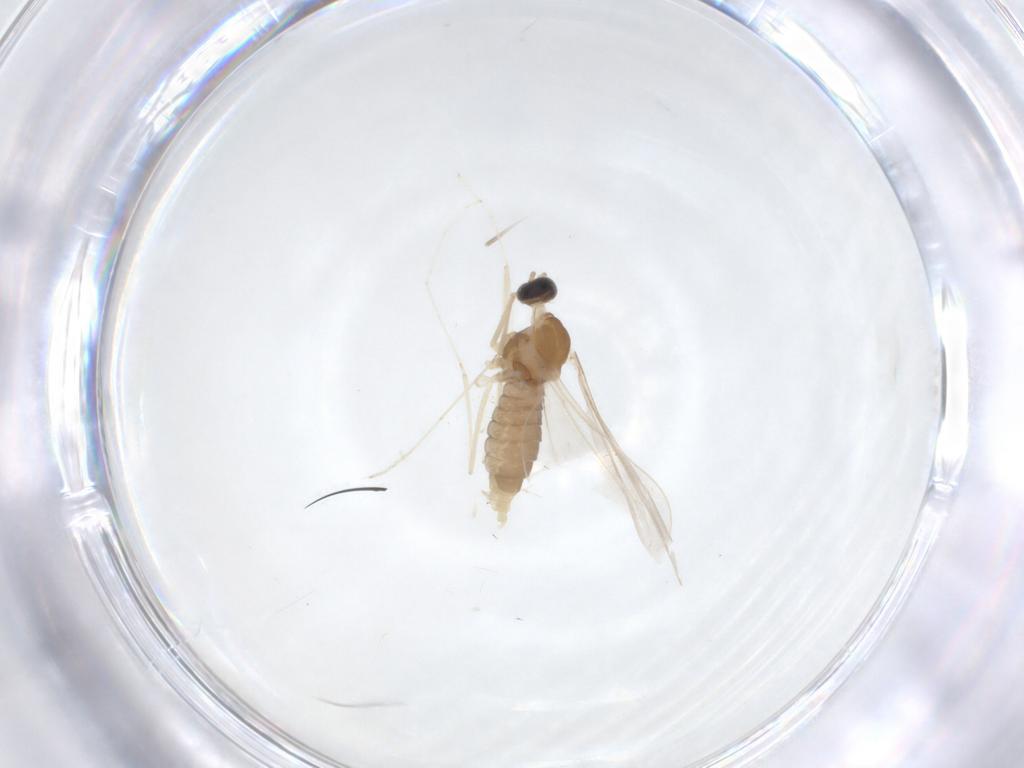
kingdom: Animalia
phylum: Arthropoda
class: Insecta
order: Diptera
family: Cecidomyiidae
